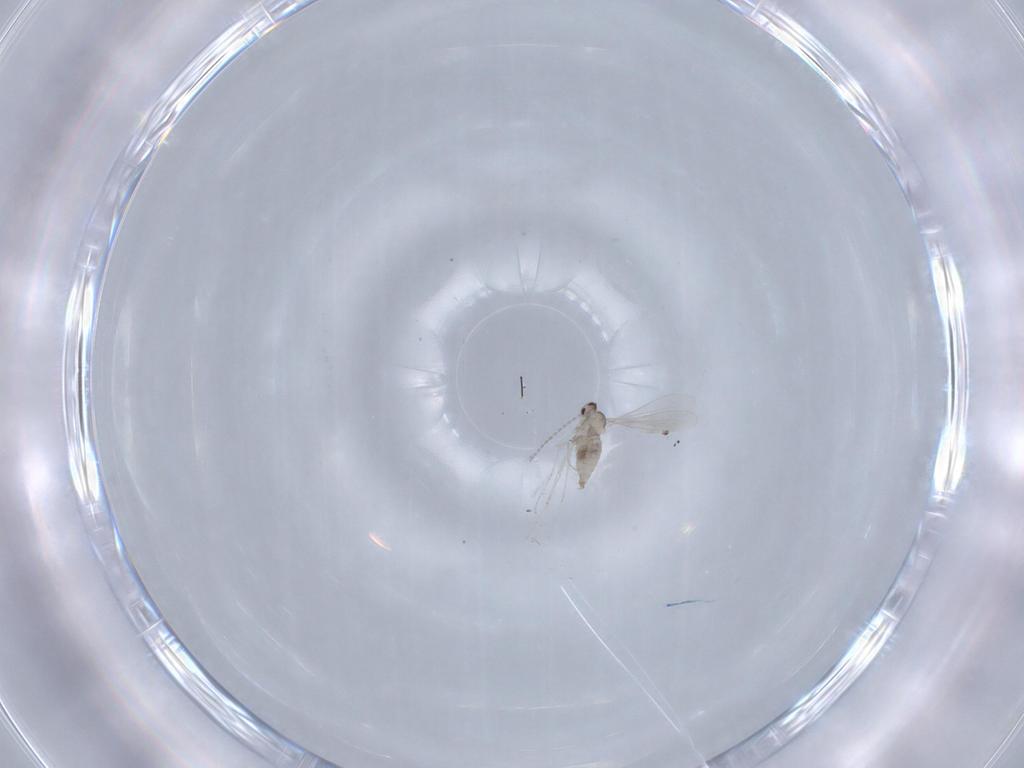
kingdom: Animalia
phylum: Arthropoda
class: Insecta
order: Diptera
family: Cecidomyiidae
